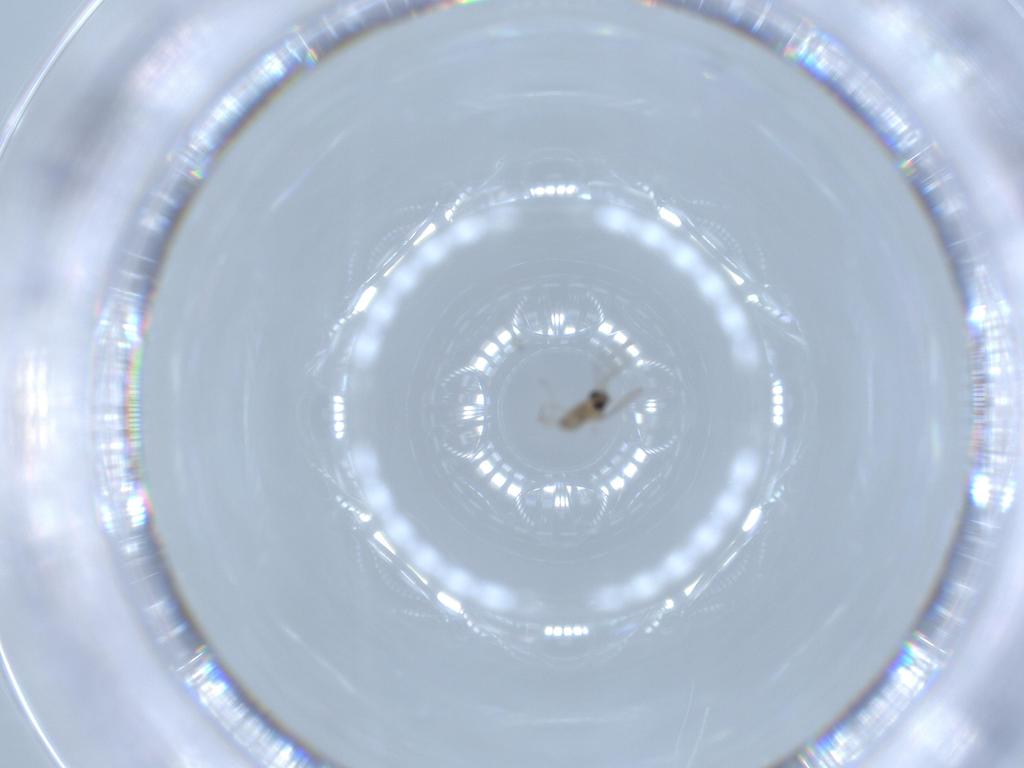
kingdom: Animalia
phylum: Arthropoda
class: Insecta
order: Diptera
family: Cecidomyiidae
